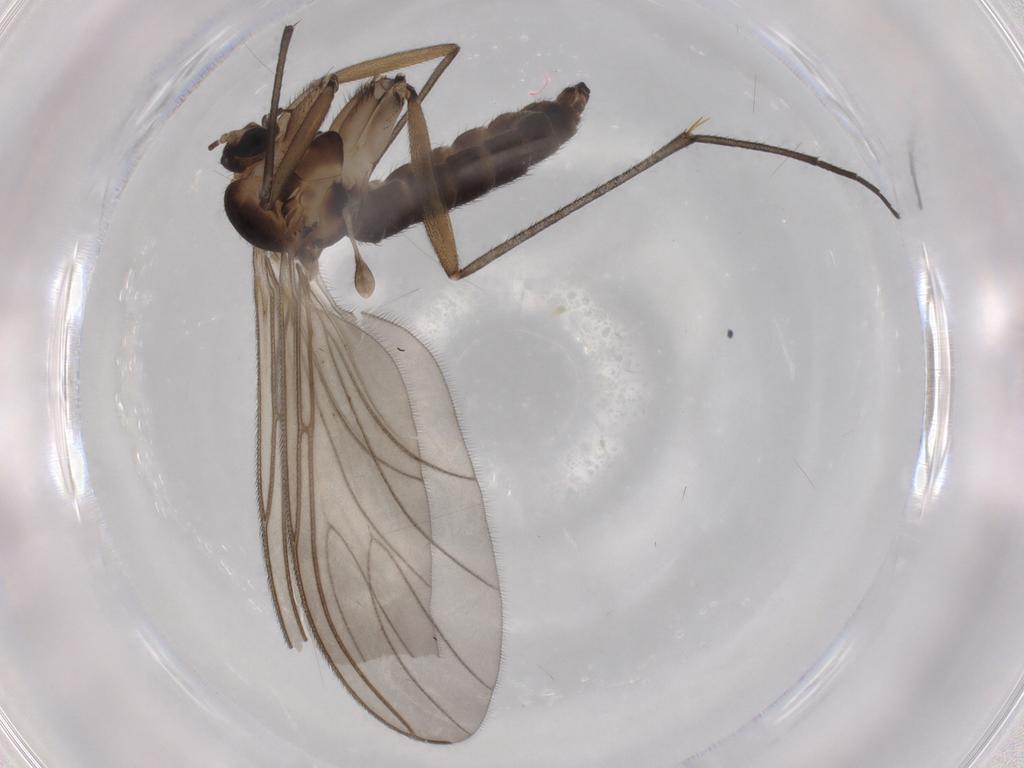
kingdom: Animalia
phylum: Arthropoda
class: Insecta
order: Diptera
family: Sciaridae
